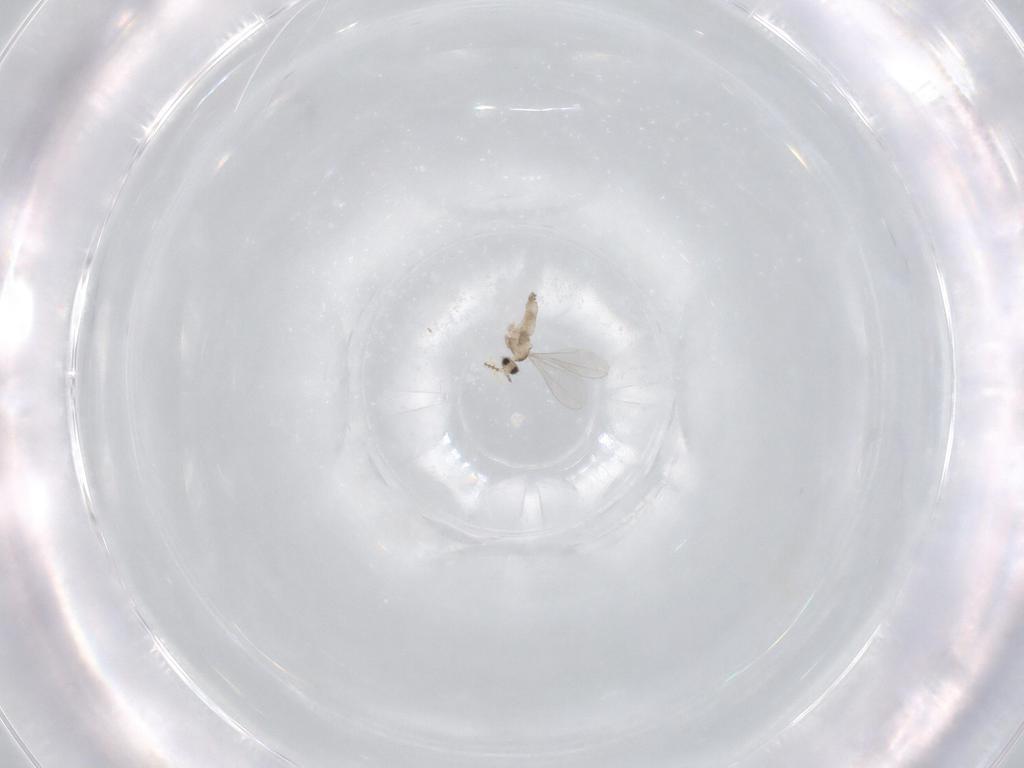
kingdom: Animalia
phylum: Arthropoda
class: Insecta
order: Diptera
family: Cecidomyiidae
